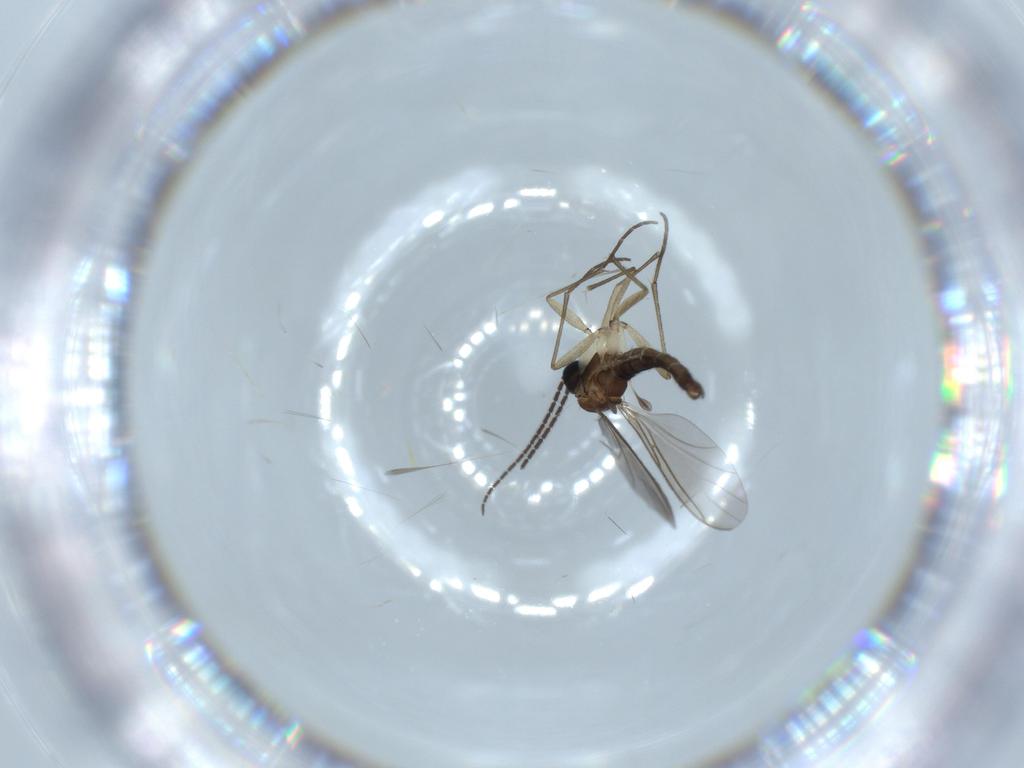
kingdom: Animalia
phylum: Arthropoda
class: Insecta
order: Diptera
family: Sciaridae
